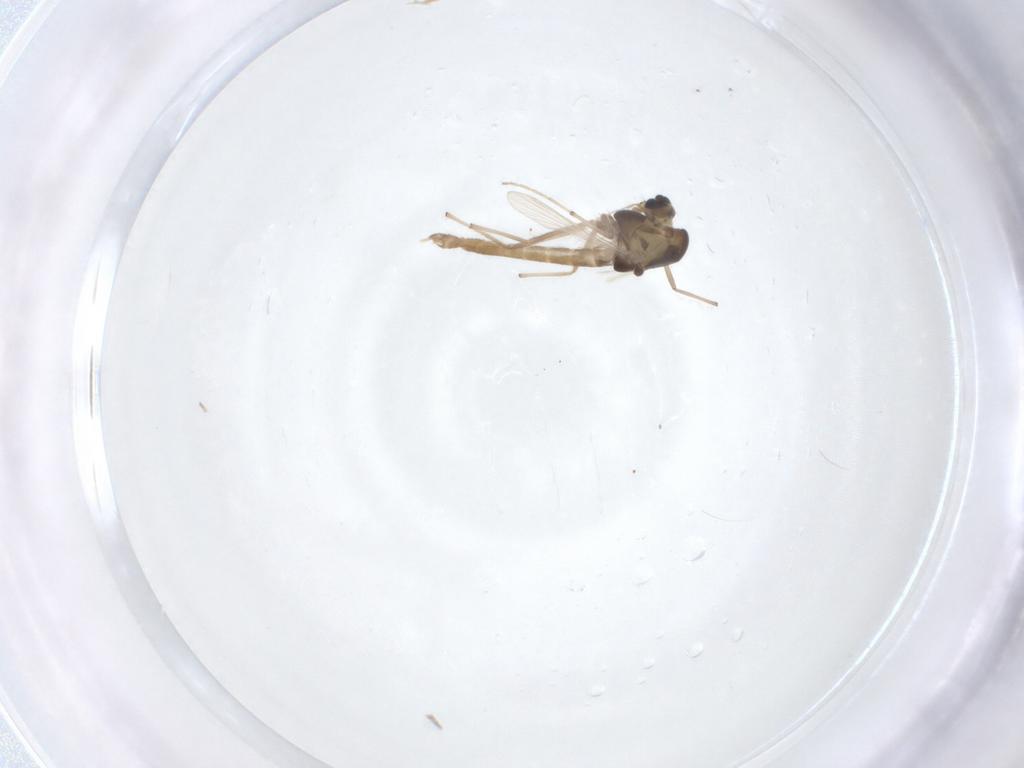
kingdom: Animalia
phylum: Arthropoda
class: Insecta
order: Diptera
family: Chironomidae
